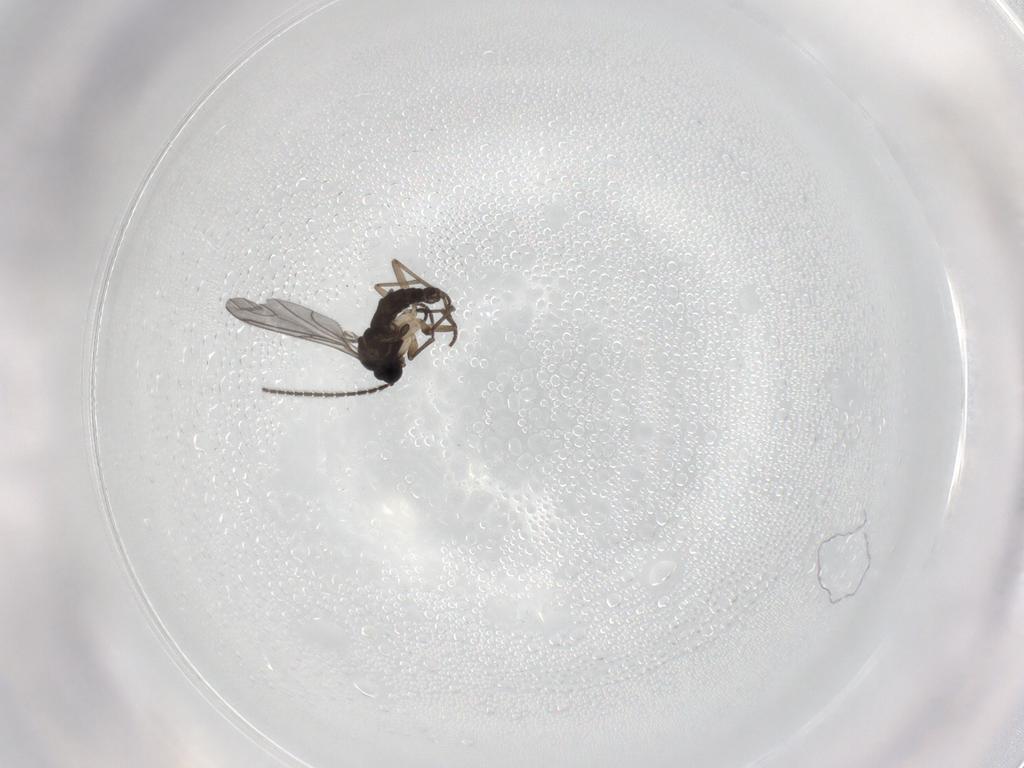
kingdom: Animalia
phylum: Arthropoda
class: Insecta
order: Diptera
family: Sciaridae
